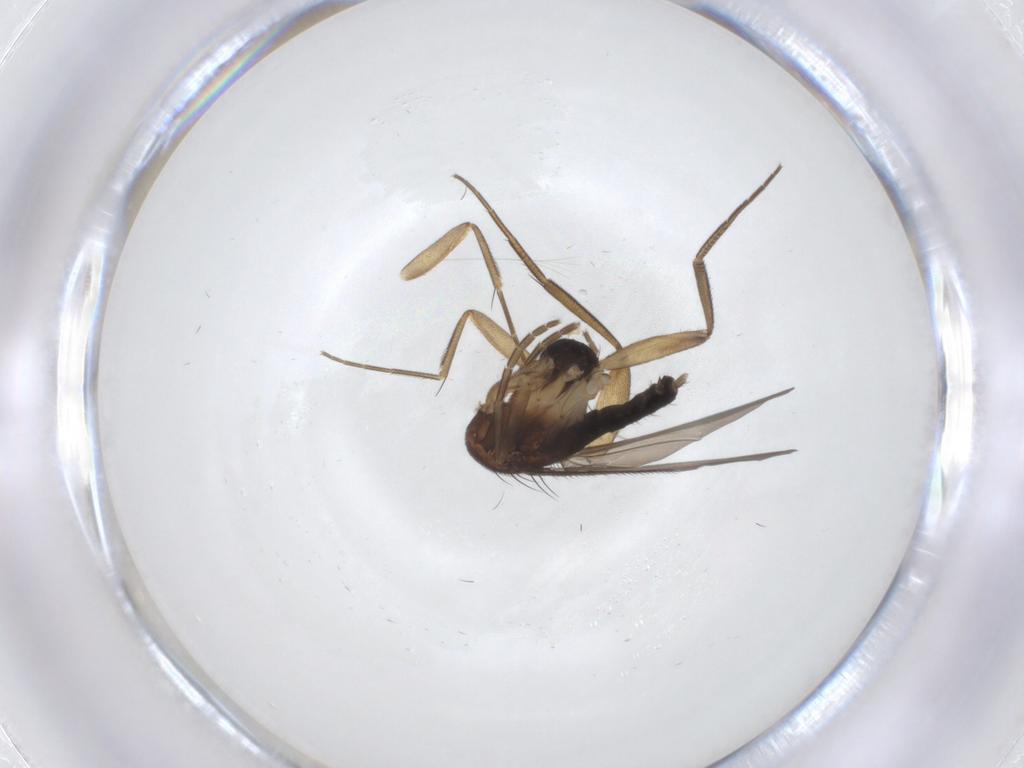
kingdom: Animalia
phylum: Arthropoda
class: Insecta
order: Diptera
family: Phoridae
